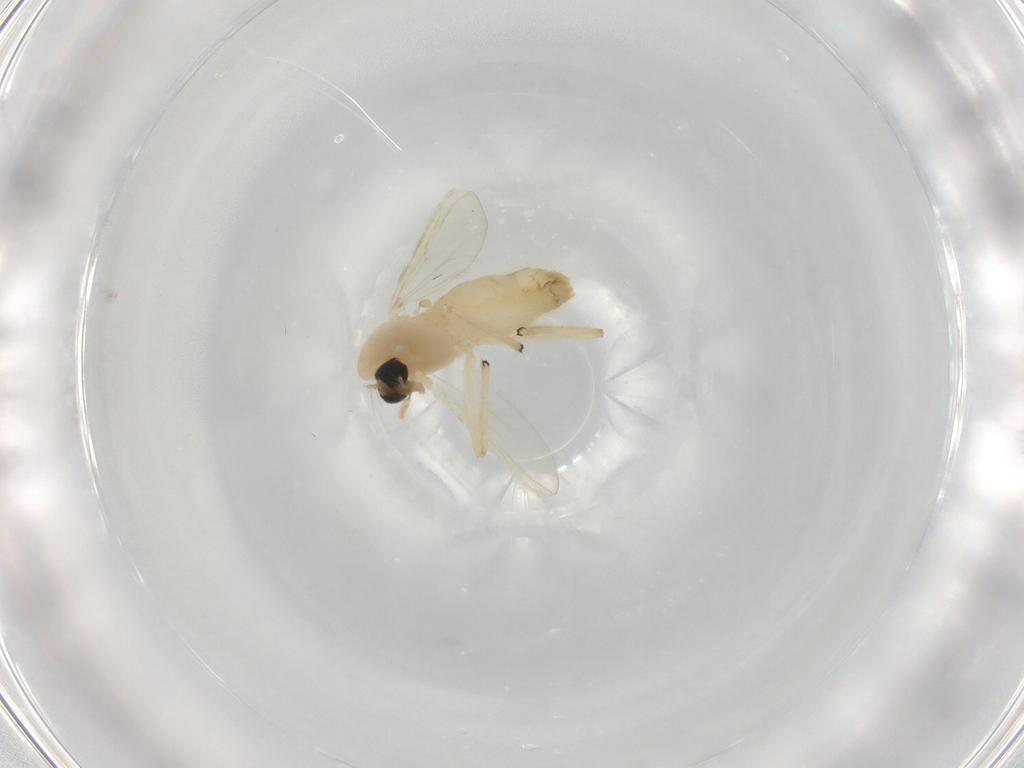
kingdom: Animalia
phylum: Arthropoda
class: Insecta
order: Diptera
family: Chironomidae
